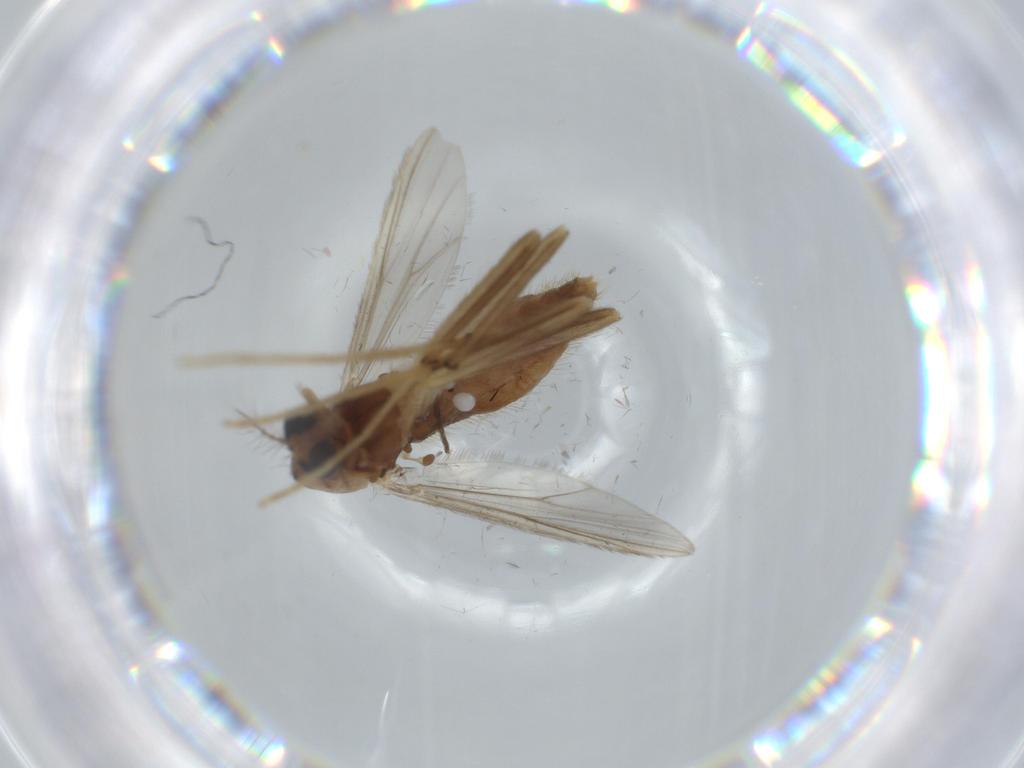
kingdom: Animalia
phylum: Arthropoda
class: Insecta
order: Diptera
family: Chironomidae
